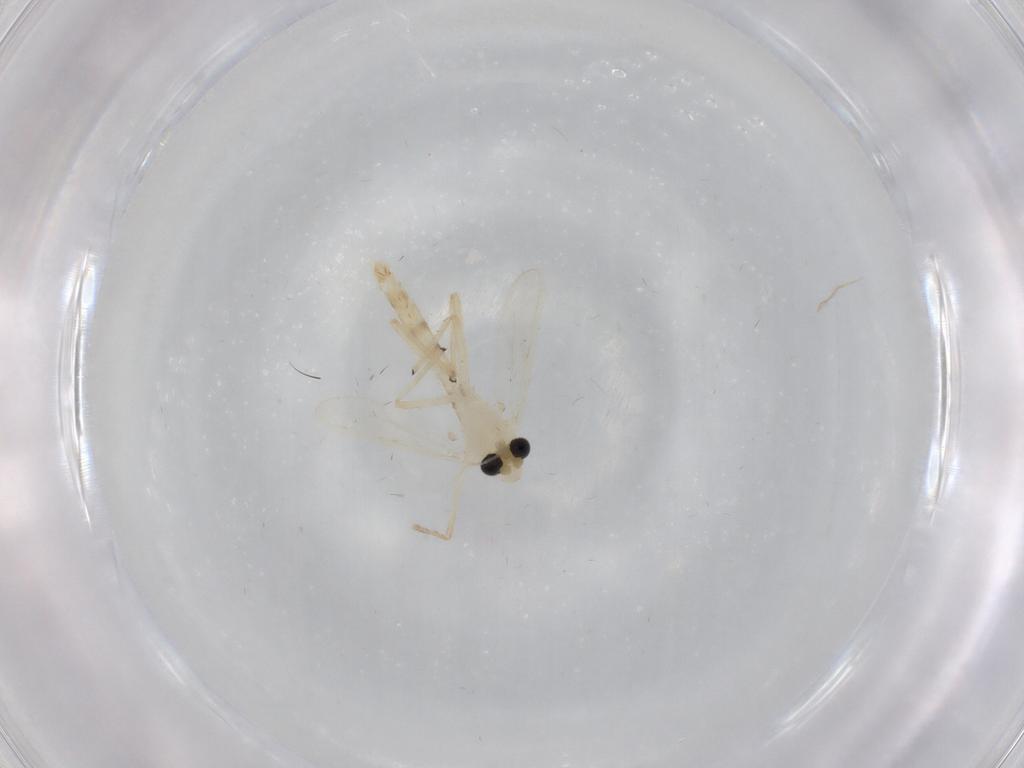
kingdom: Animalia
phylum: Arthropoda
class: Insecta
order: Diptera
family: Chironomidae
